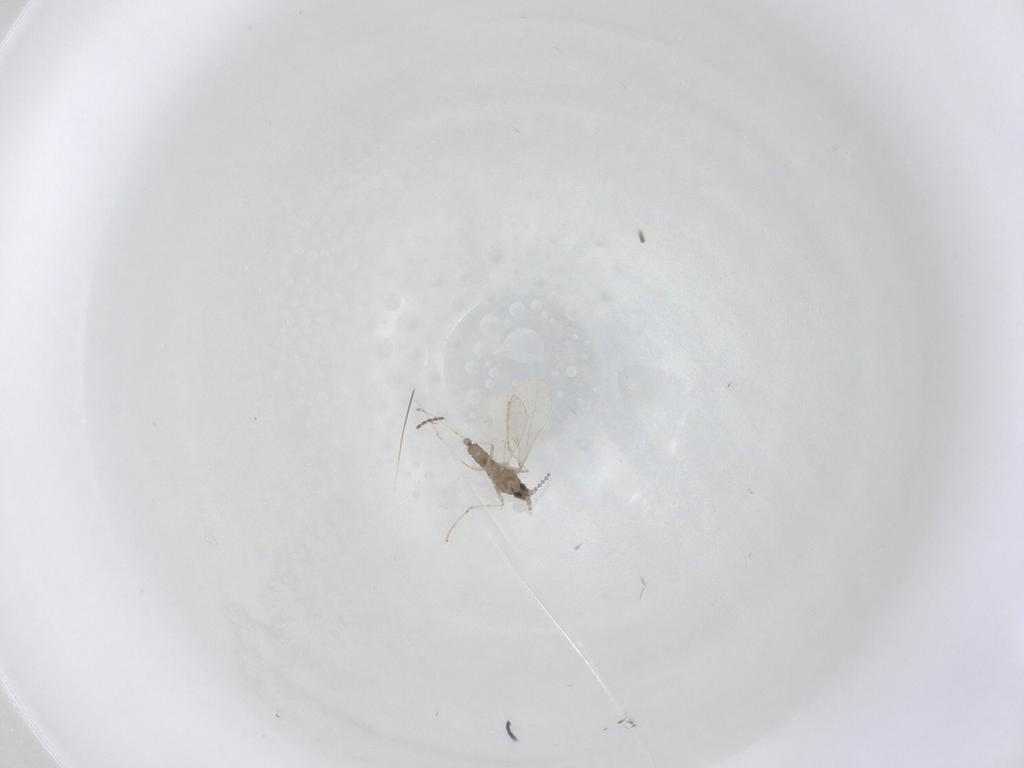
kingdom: Animalia
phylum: Arthropoda
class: Insecta
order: Diptera
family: Cecidomyiidae
